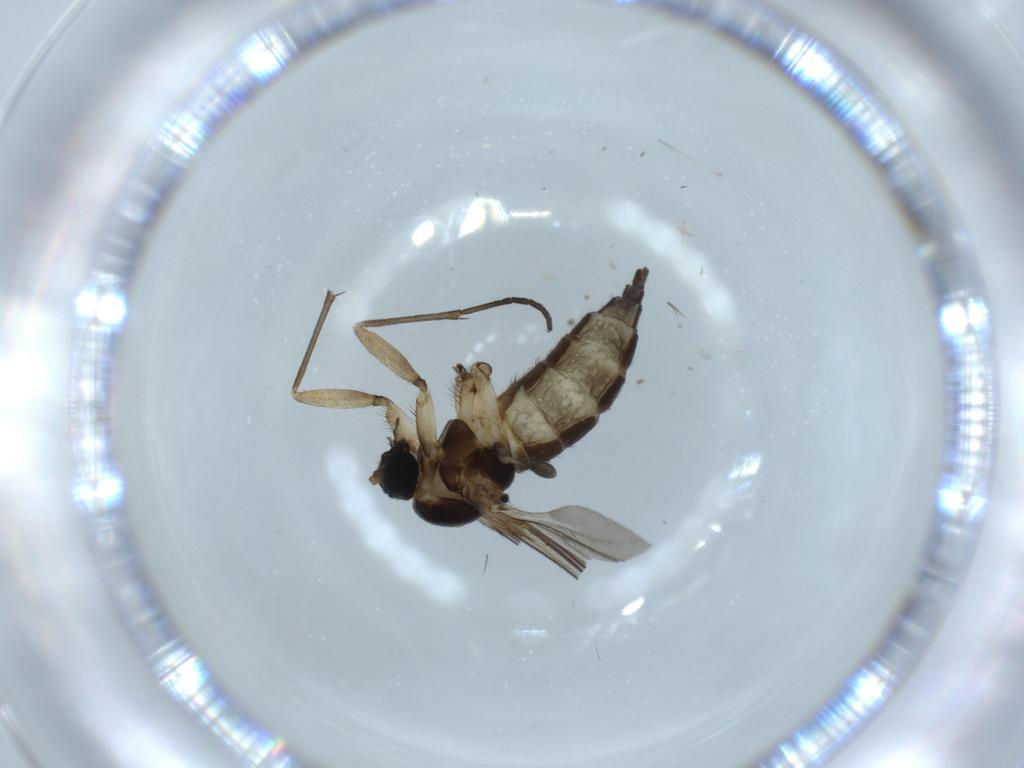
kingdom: Animalia
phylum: Arthropoda
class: Insecta
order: Diptera
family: Sciaridae
